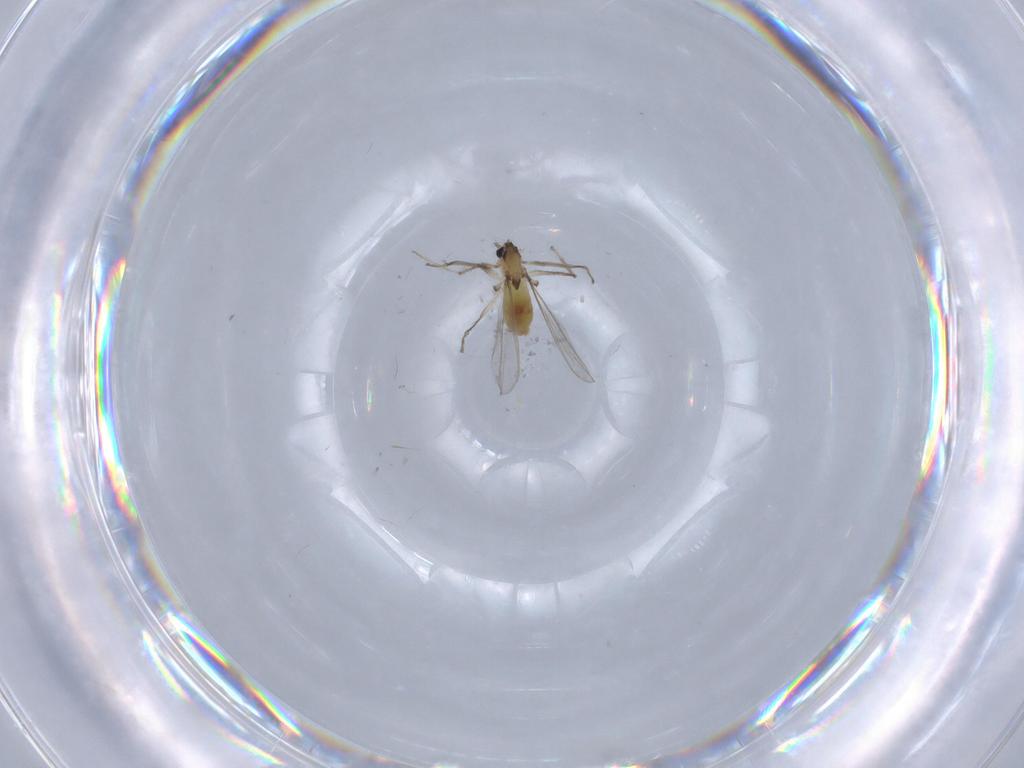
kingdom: Animalia
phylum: Arthropoda
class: Insecta
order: Diptera
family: Chironomidae
